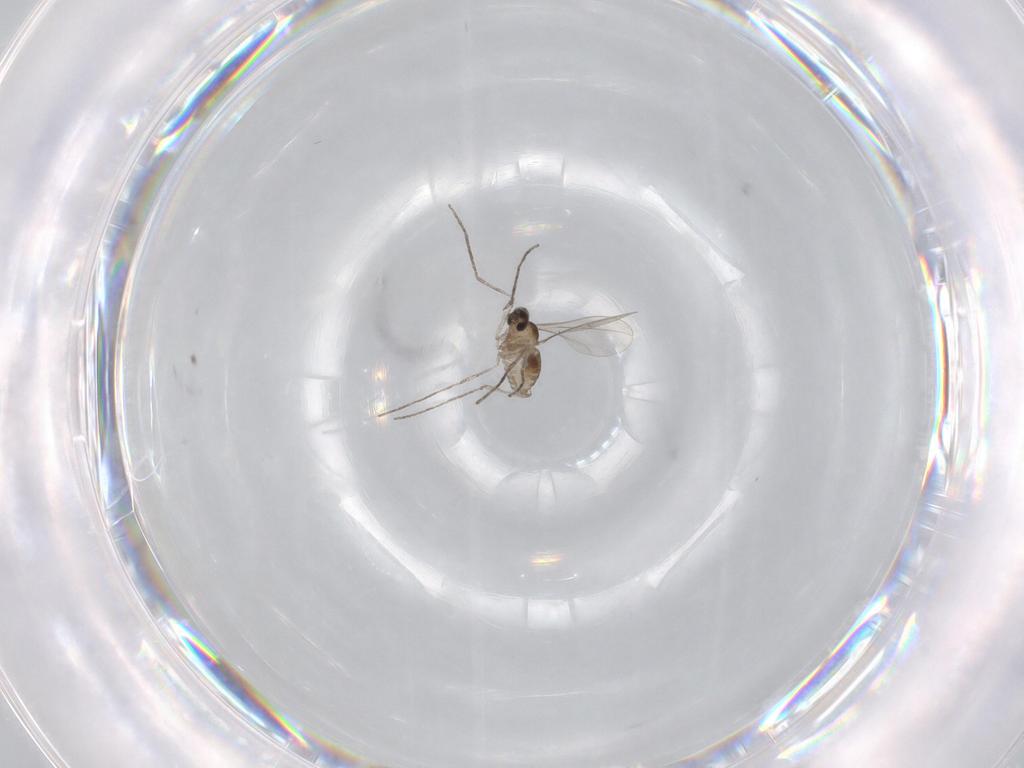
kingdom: Animalia
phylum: Arthropoda
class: Insecta
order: Diptera
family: Cecidomyiidae
